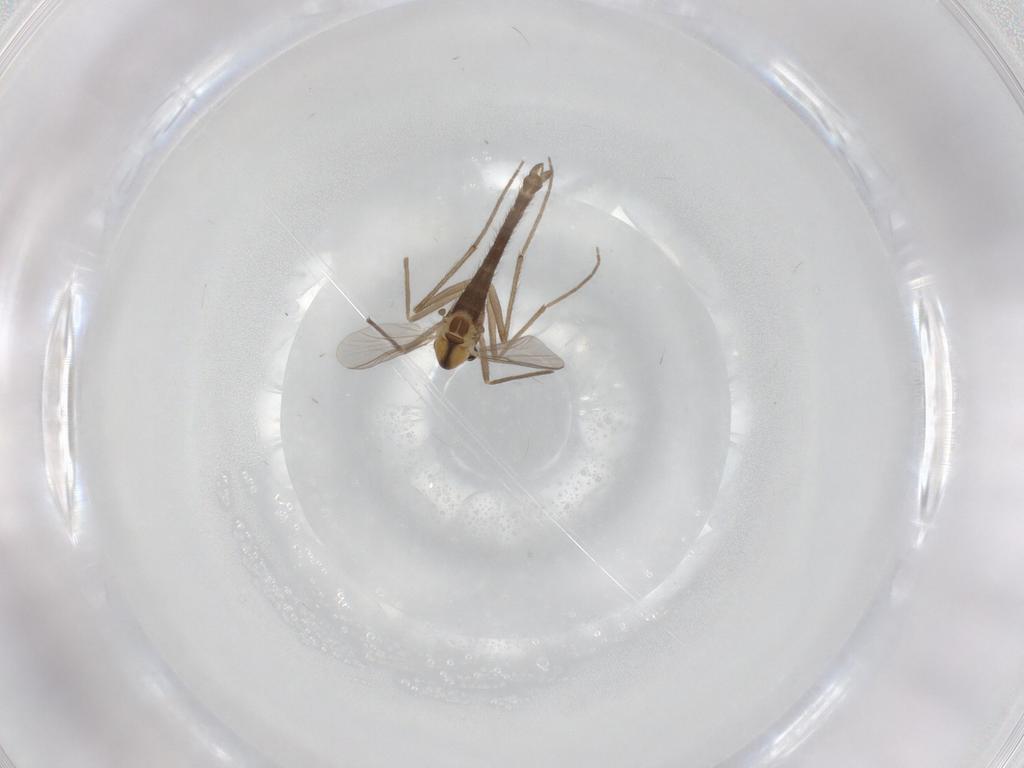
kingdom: Animalia
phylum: Arthropoda
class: Insecta
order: Diptera
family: Chironomidae
